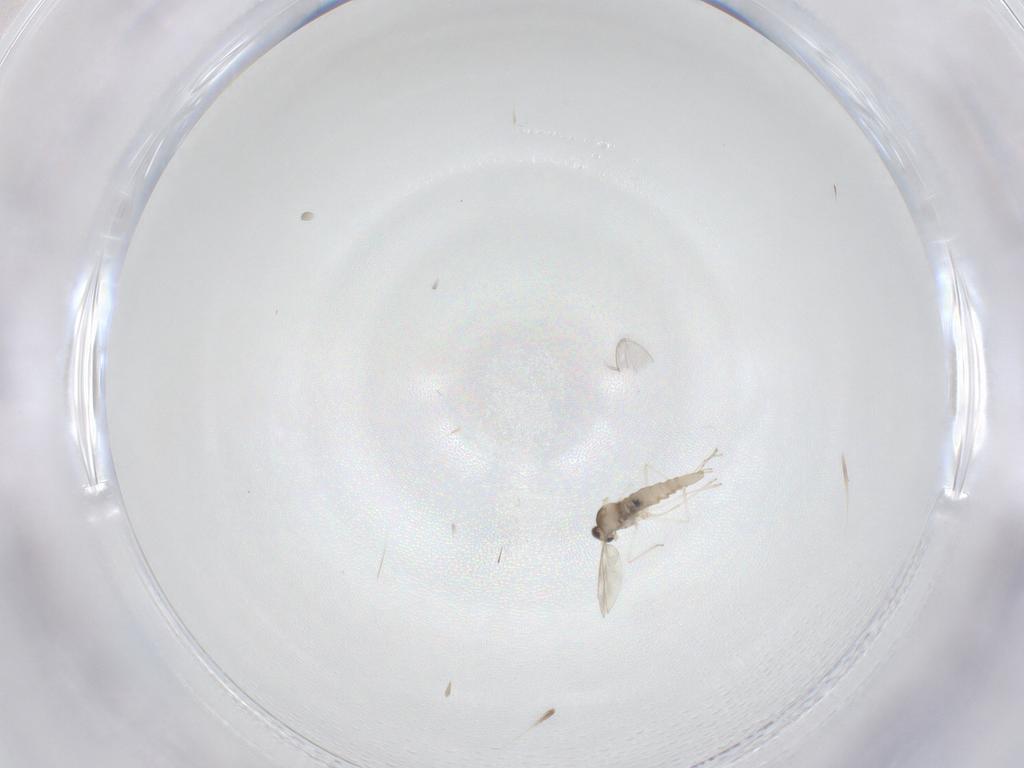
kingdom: Animalia
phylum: Arthropoda
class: Insecta
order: Diptera
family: Cecidomyiidae
